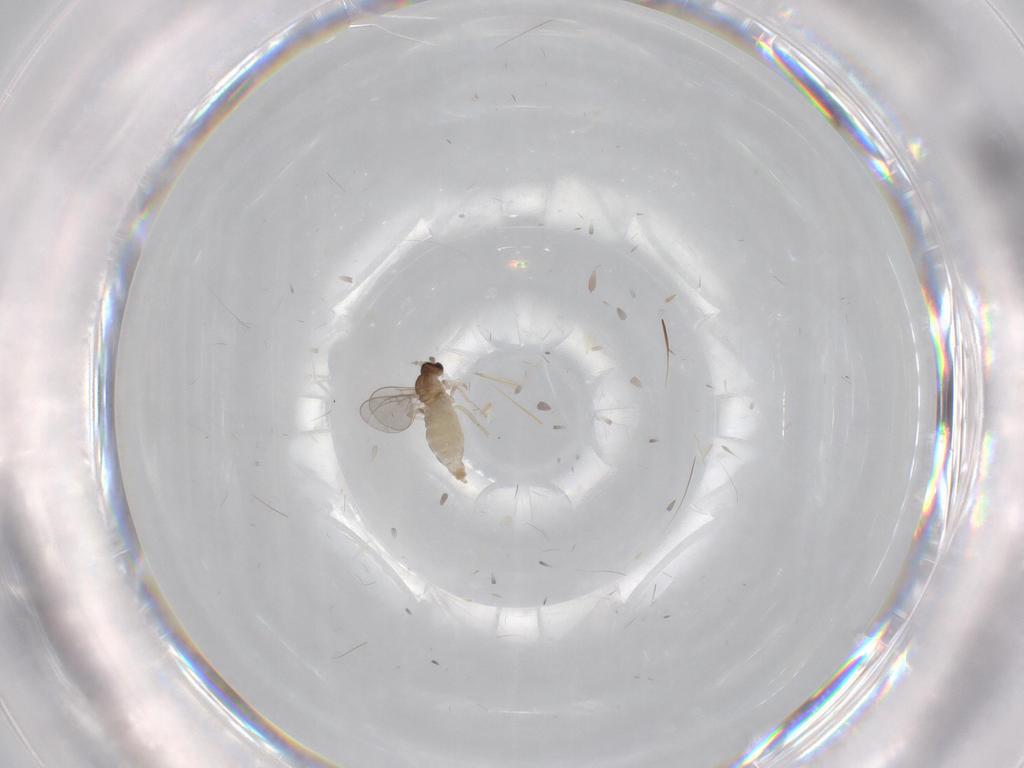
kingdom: Animalia
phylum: Arthropoda
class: Insecta
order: Diptera
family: Cecidomyiidae
